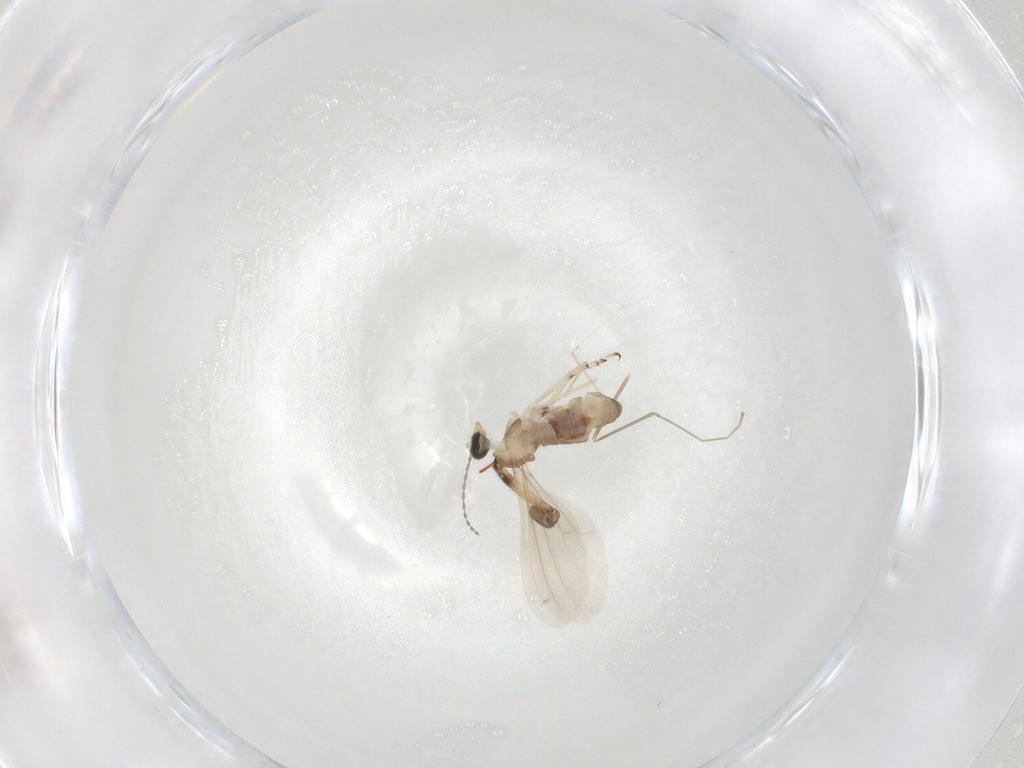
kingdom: Animalia
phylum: Arthropoda
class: Insecta
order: Diptera
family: Cecidomyiidae
